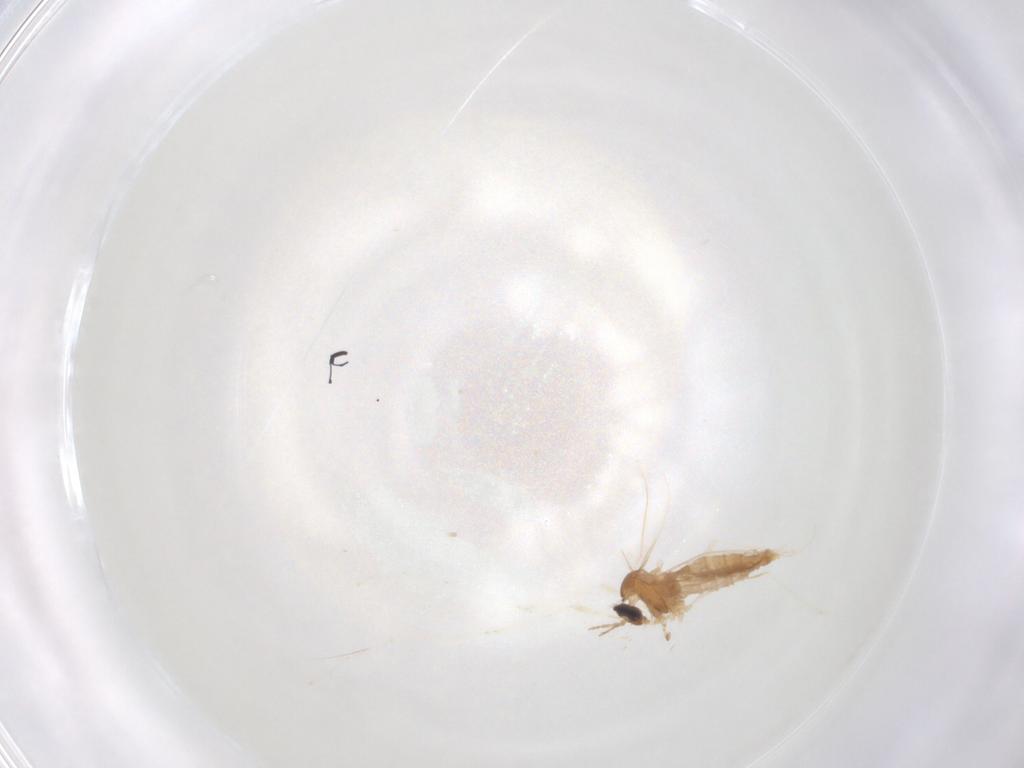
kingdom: Animalia
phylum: Arthropoda
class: Insecta
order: Diptera
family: Cecidomyiidae
